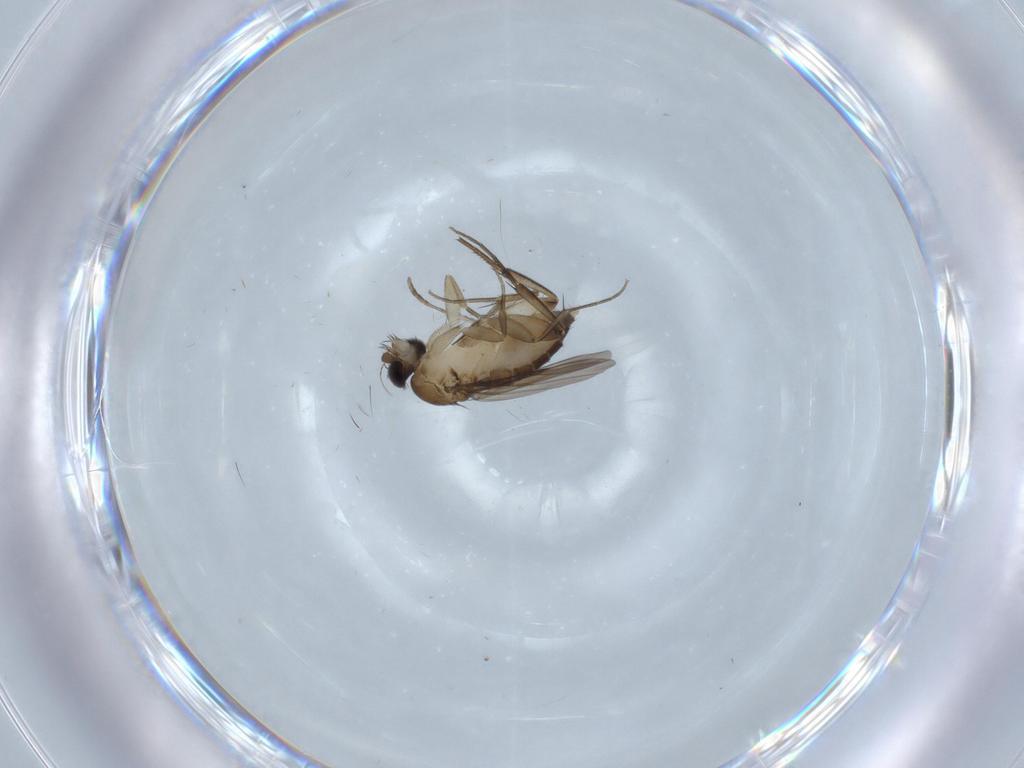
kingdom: Animalia
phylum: Arthropoda
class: Insecta
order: Diptera
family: Phoridae
